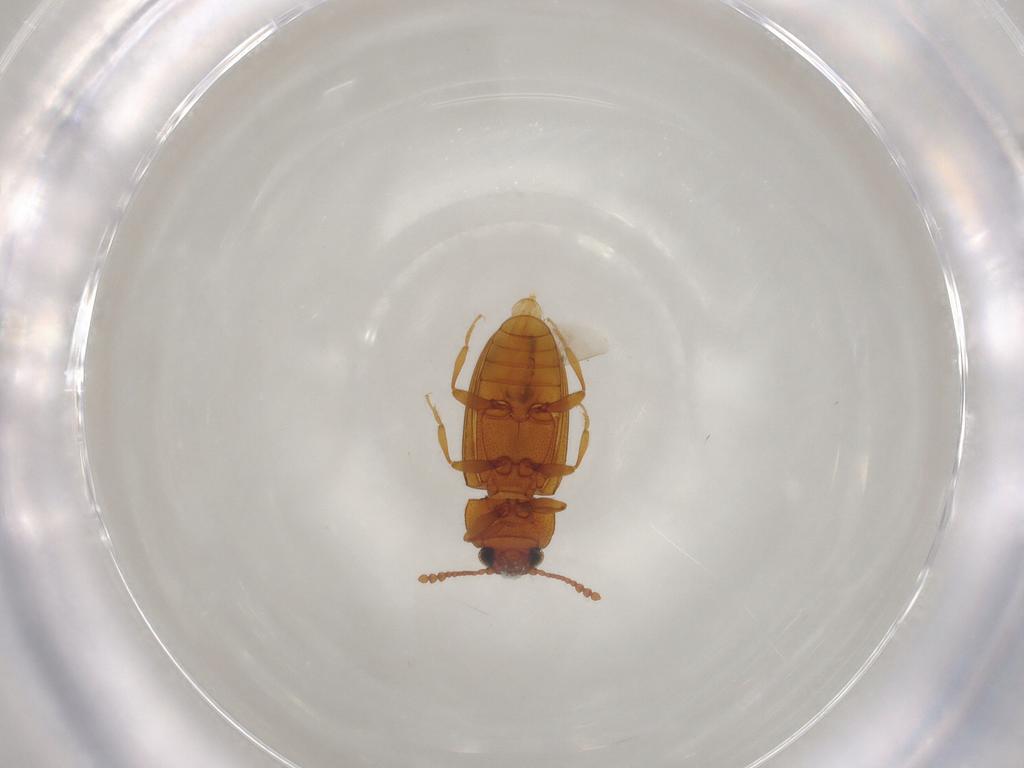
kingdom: Animalia
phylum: Arthropoda
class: Insecta
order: Coleoptera
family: Erotylidae
